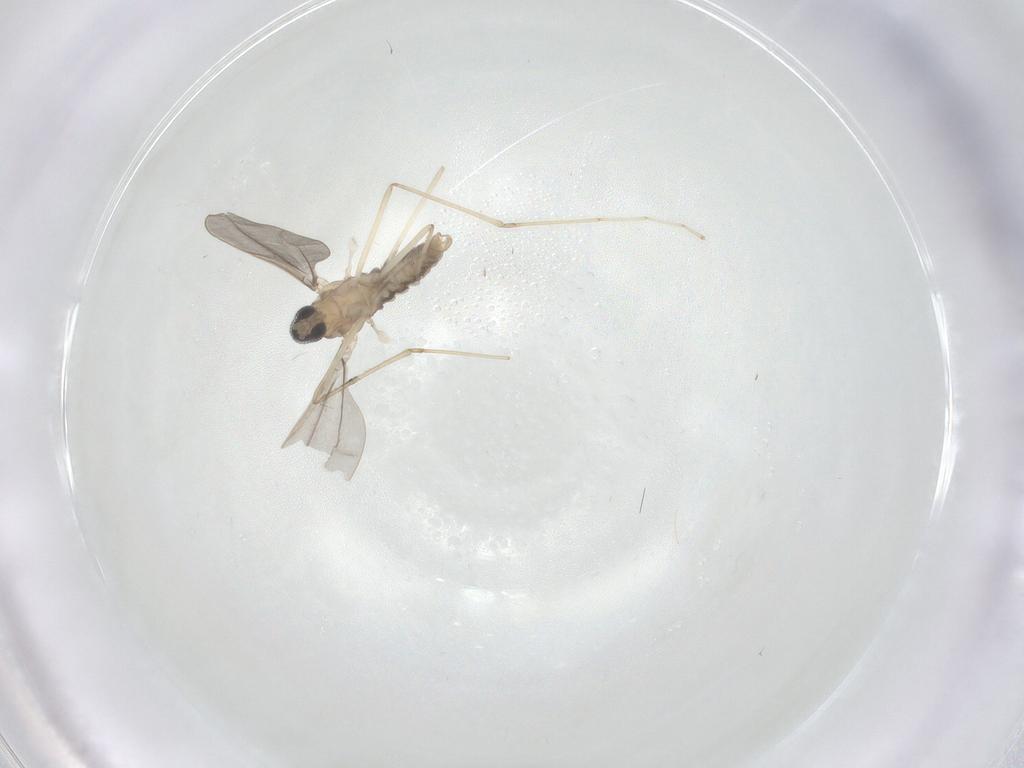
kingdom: Animalia
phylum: Arthropoda
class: Insecta
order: Diptera
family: Cecidomyiidae
